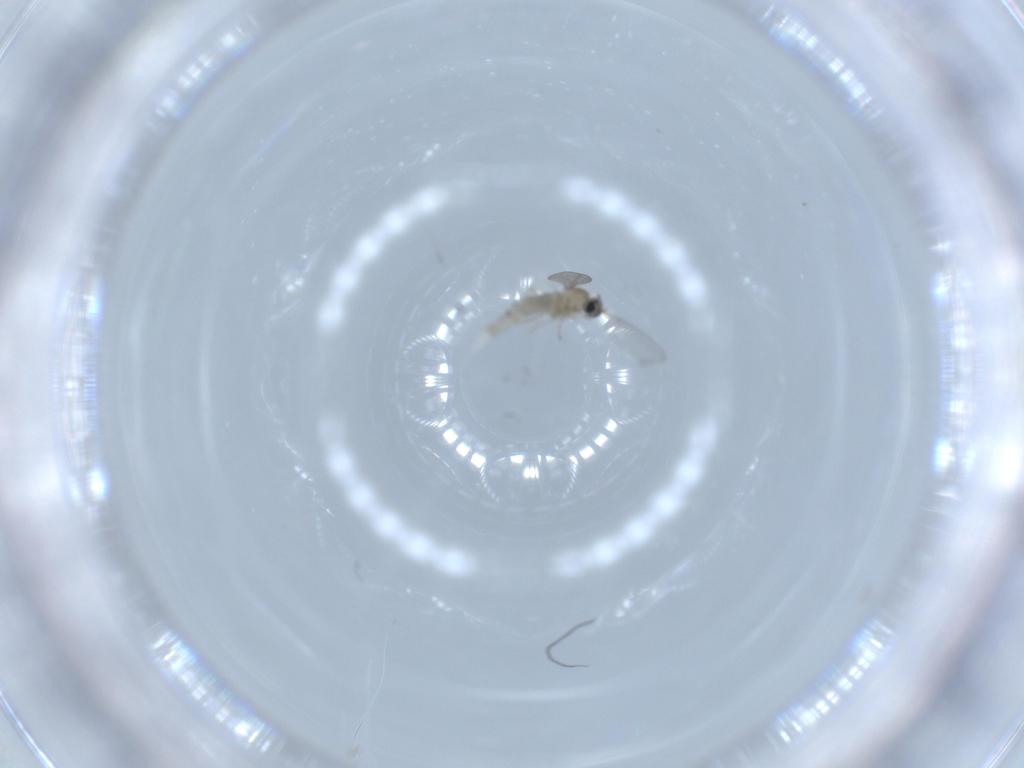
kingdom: Animalia
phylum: Arthropoda
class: Insecta
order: Diptera
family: Cecidomyiidae
